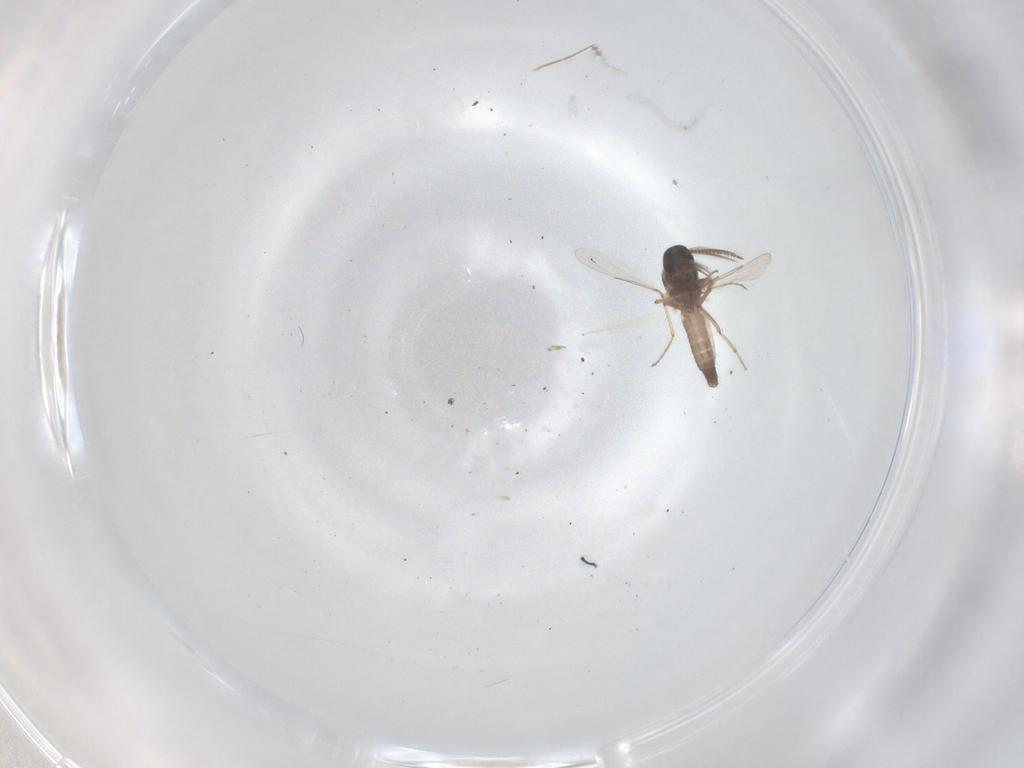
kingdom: Animalia
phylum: Arthropoda
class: Insecta
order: Diptera
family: Ceratopogonidae
